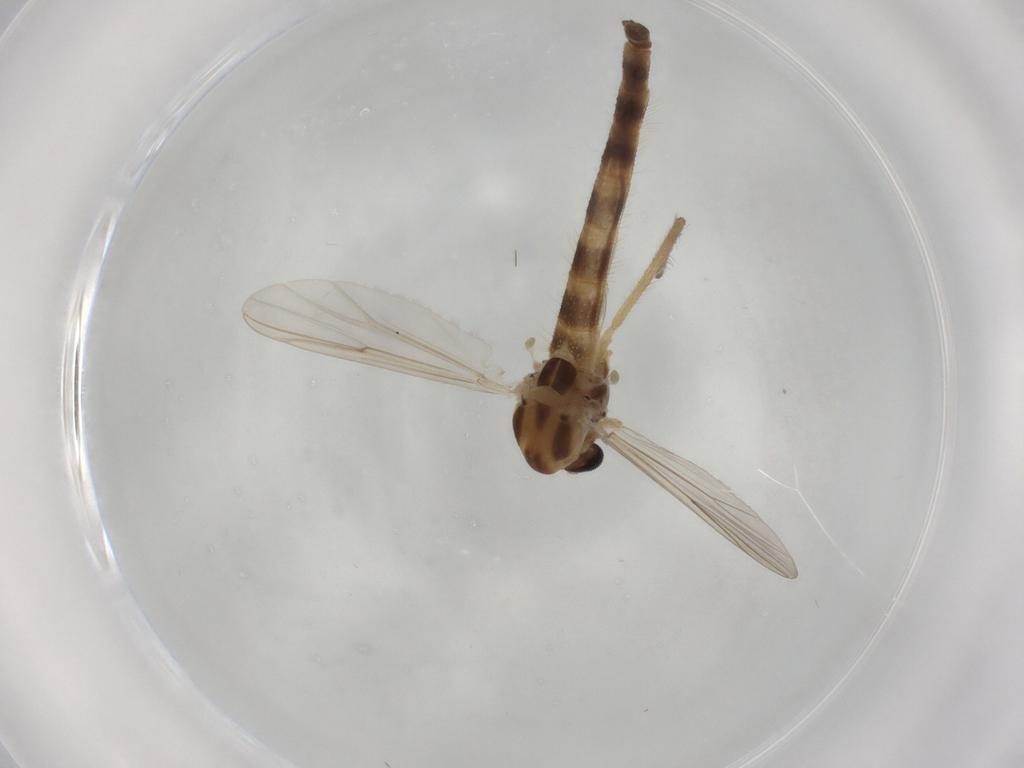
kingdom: Animalia
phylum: Arthropoda
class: Insecta
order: Diptera
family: Chironomidae
